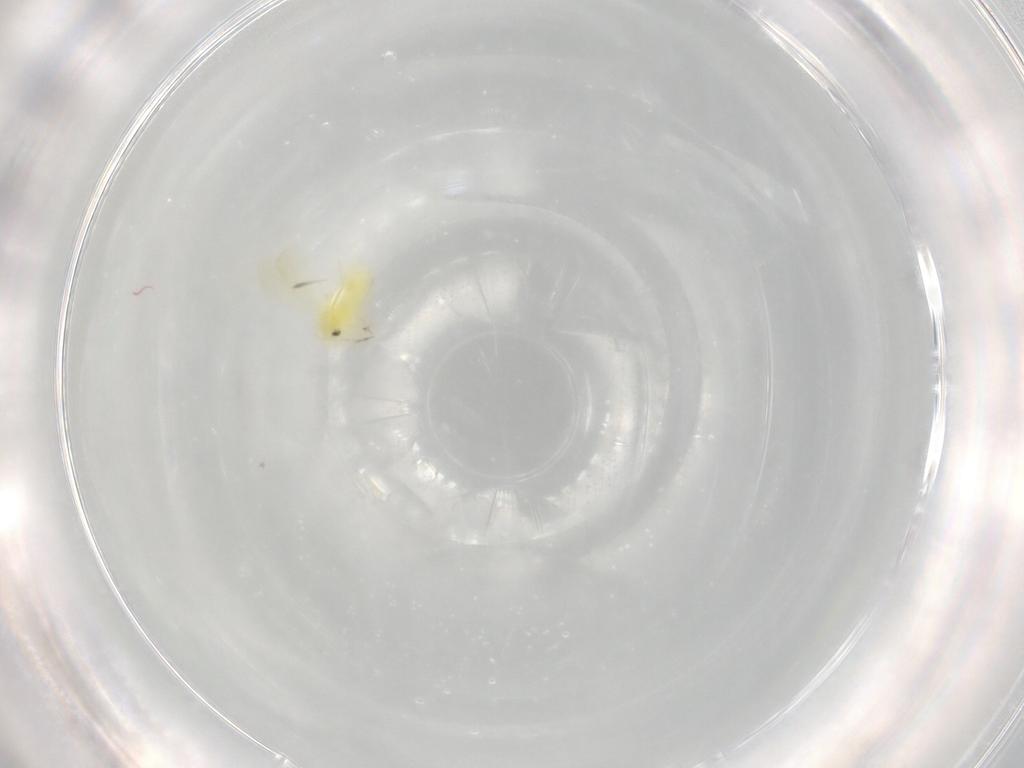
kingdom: Animalia
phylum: Arthropoda
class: Insecta
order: Hemiptera
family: Aleyrodidae
